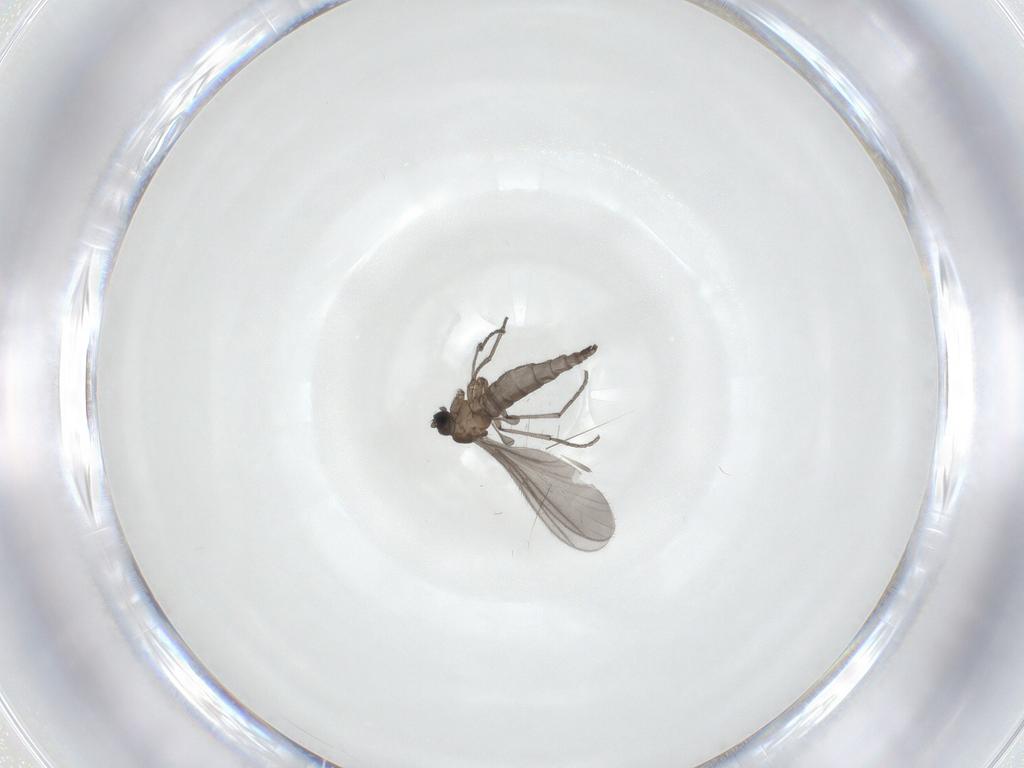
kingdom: Animalia
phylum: Arthropoda
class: Insecta
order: Diptera
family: Sciaridae
